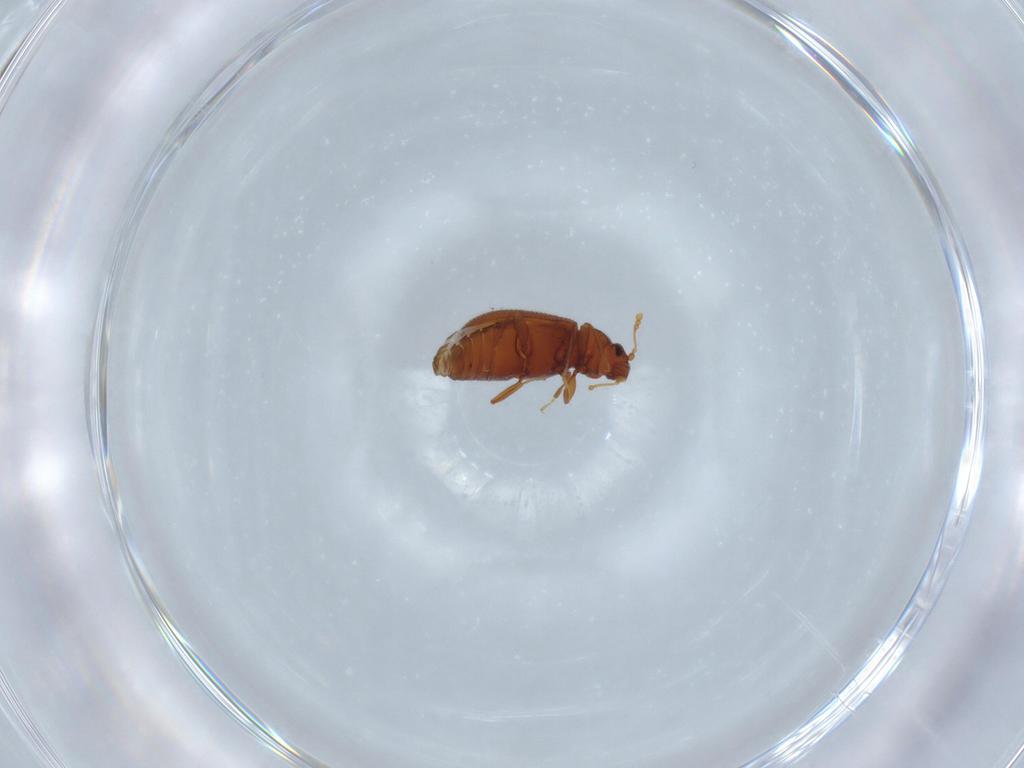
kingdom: Animalia
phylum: Arthropoda
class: Insecta
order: Coleoptera
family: Latridiidae
